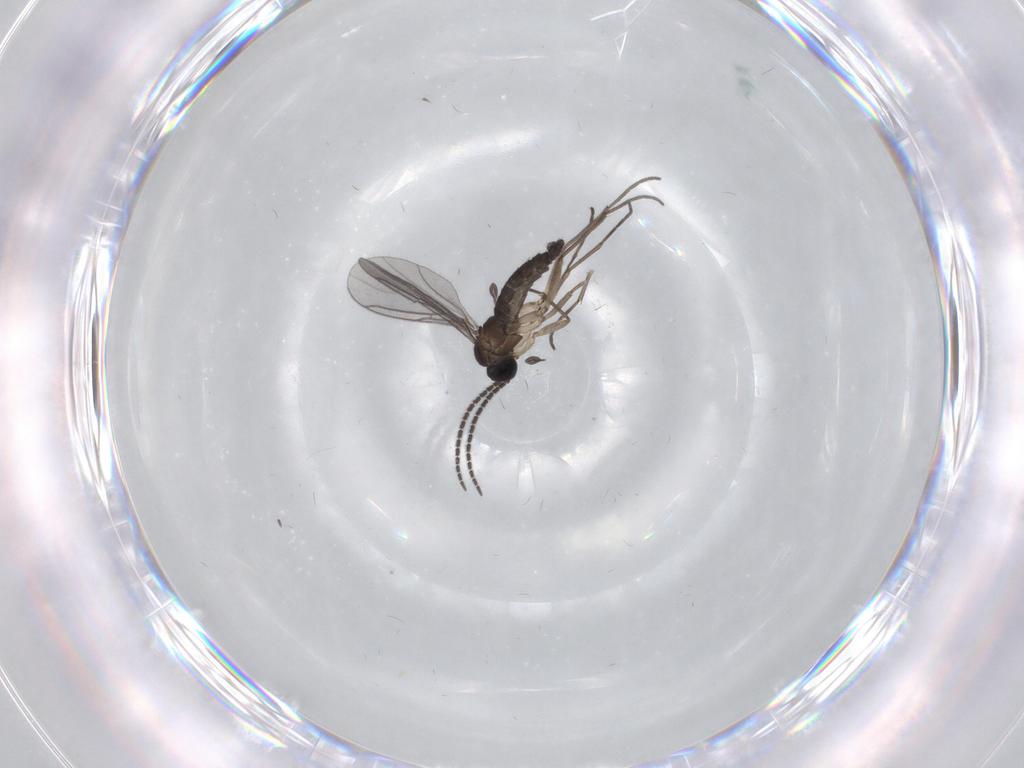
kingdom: Animalia
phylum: Arthropoda
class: Insecta
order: Diptera
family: Sciaridae
